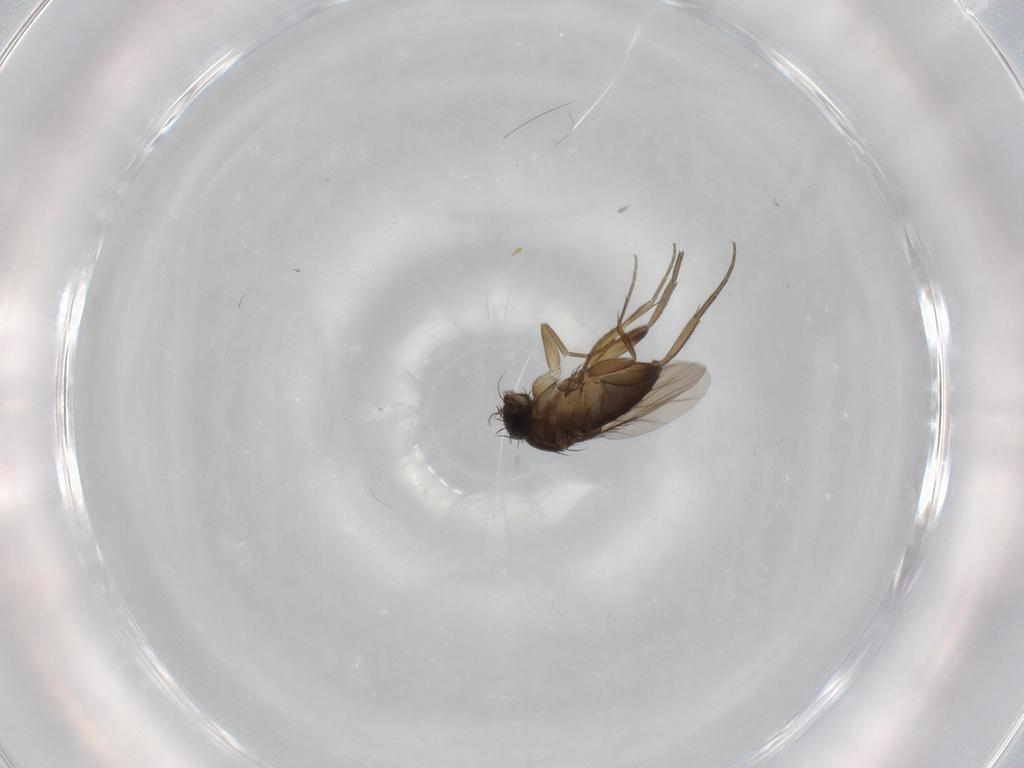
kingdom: Animalia
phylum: Arthropoda
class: Insecta
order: Diptera
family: Phoridae
